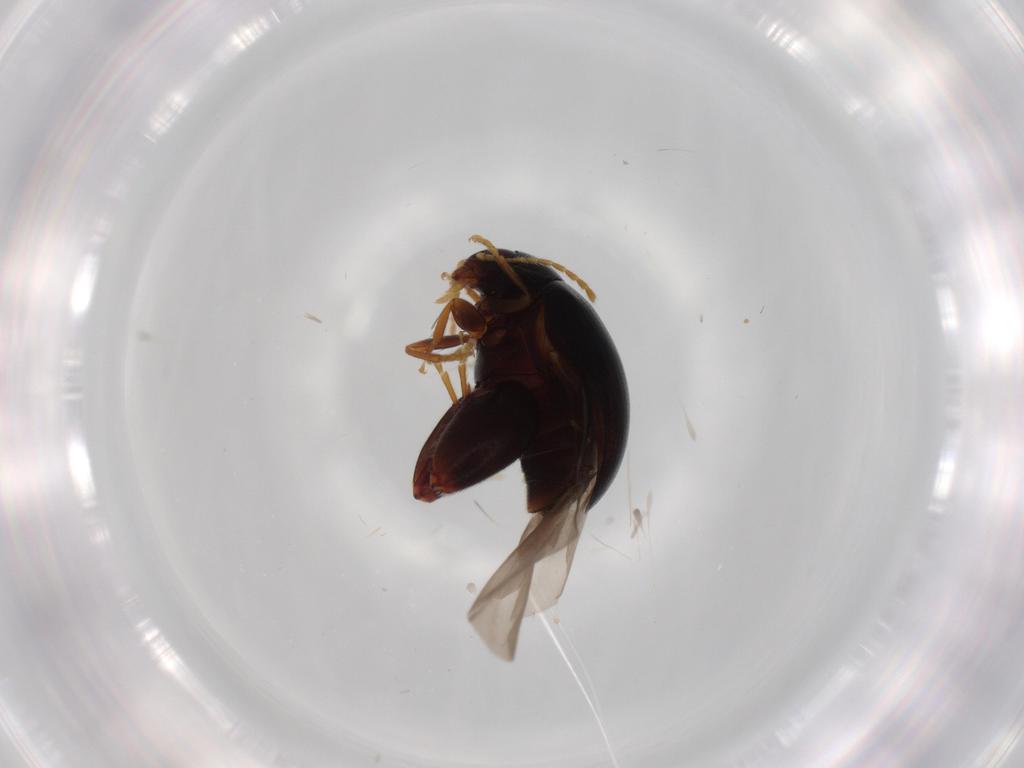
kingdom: Animalia
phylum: Arthropoda
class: Insecta
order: Coleoptera
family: Chrysomelidae
